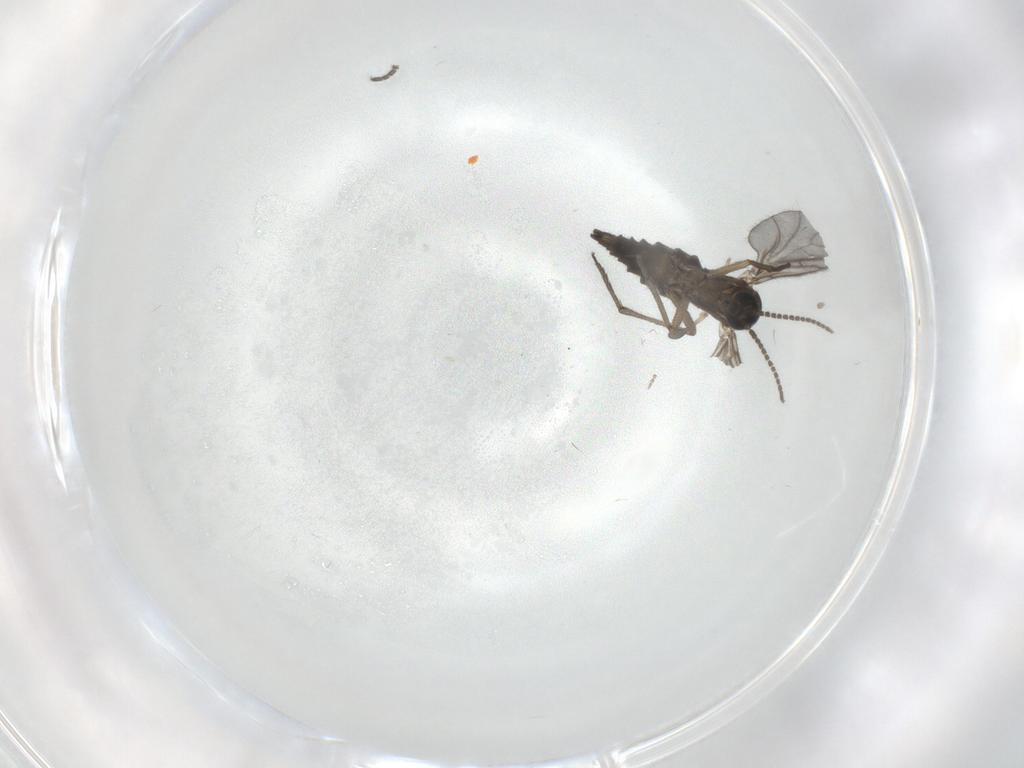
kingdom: Animalia
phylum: Arthropoda
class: Insecta
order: Diptera
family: Sciaridae
